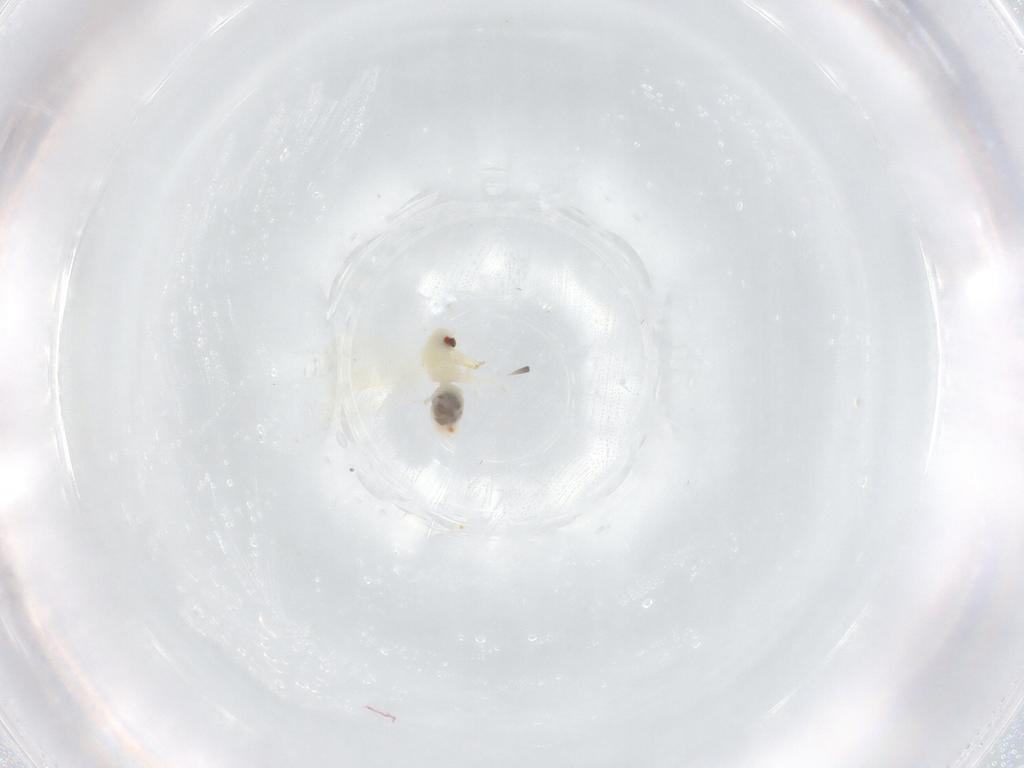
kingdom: Animalia
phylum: Arthropoda
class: Insecta
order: Hemiptera
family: Aleyrodidae
